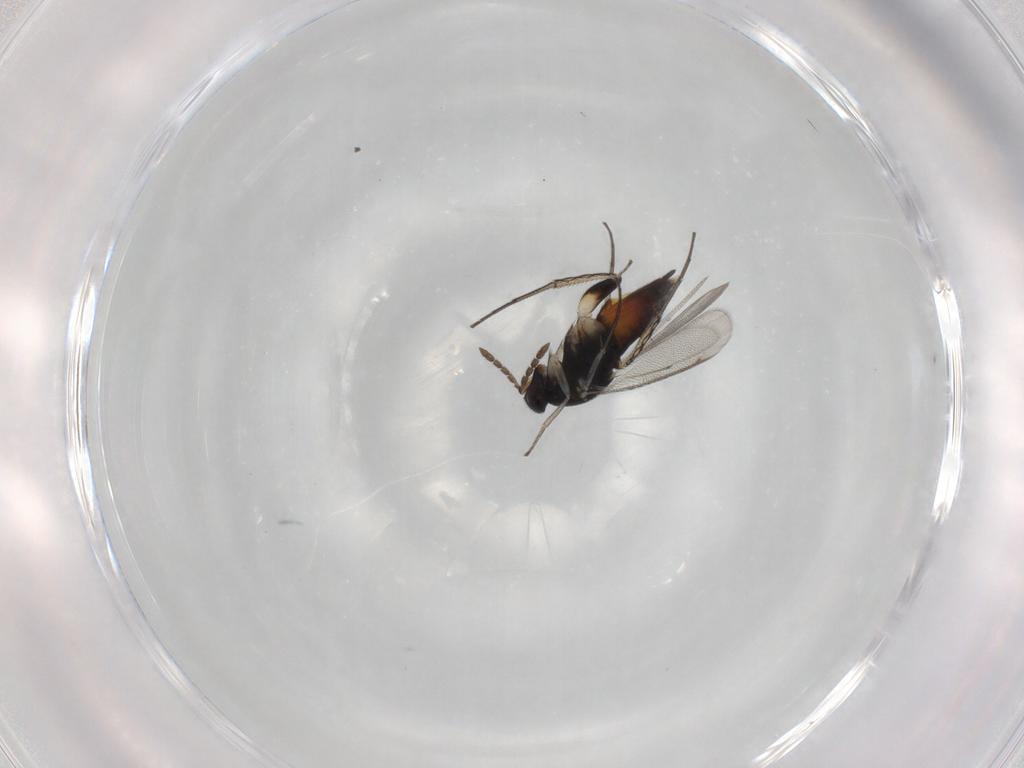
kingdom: Animalia
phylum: Arthropoda
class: Insecta
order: Hymenoptera
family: Eulophidae
